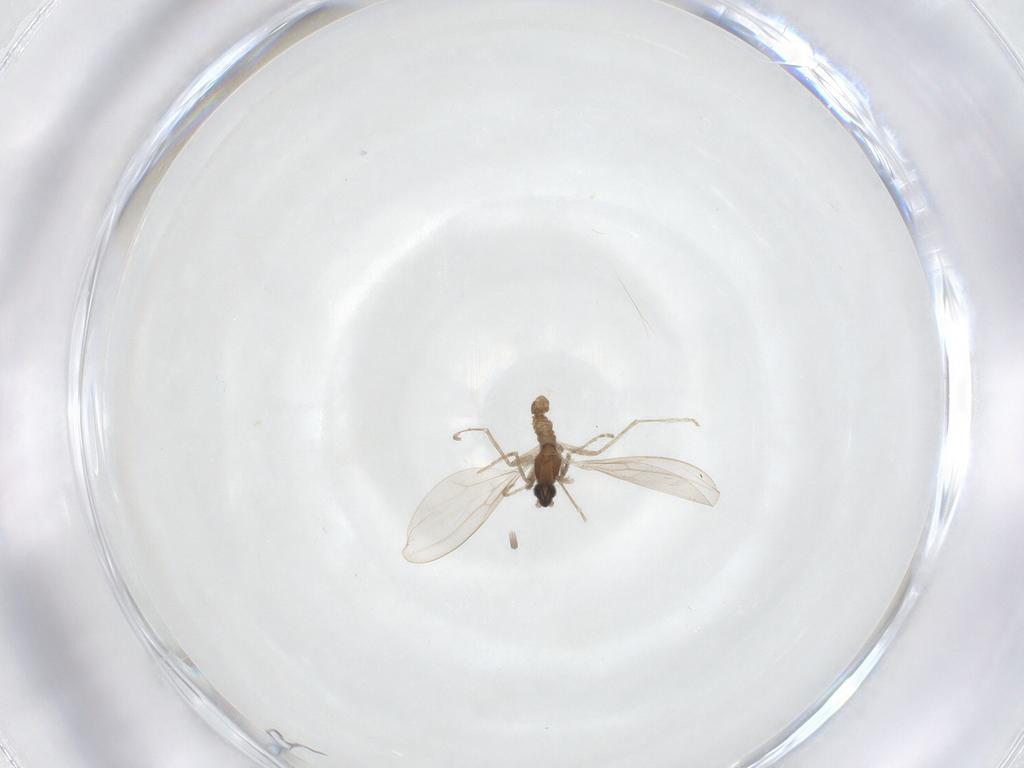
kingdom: Animalia
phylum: Arthropoda
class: Insecta
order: Diptera
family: Cecidomyiidae
